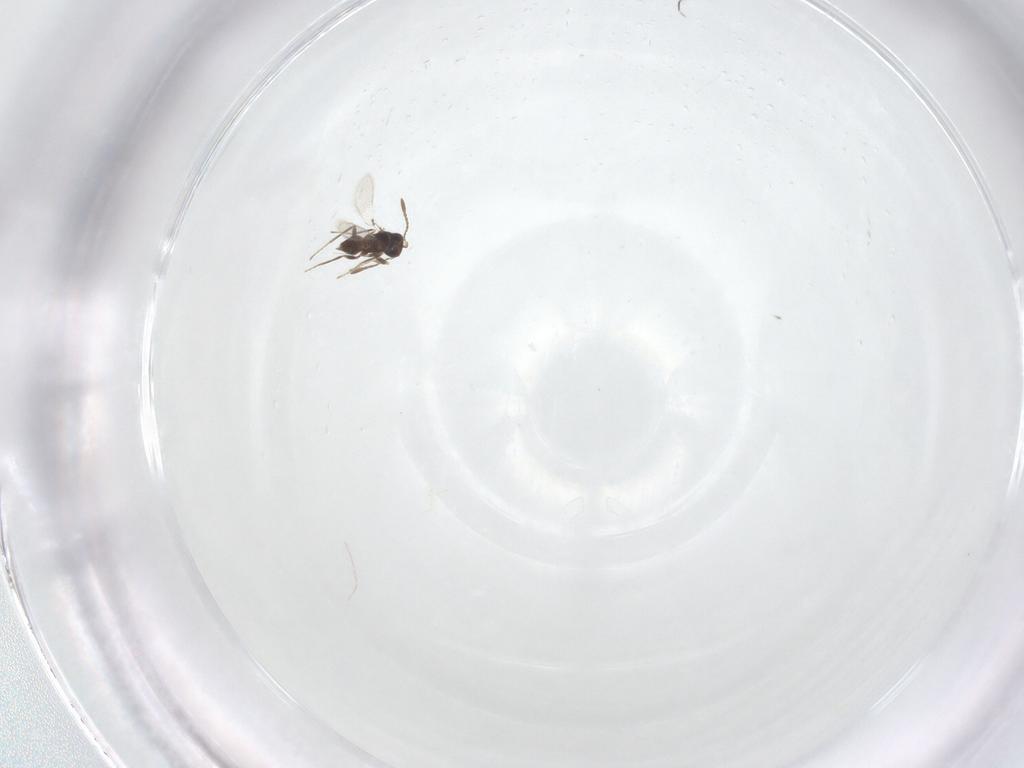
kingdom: Animalia
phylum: Arthropoda
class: Insecta
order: Hymenoptera
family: Mymaridae
